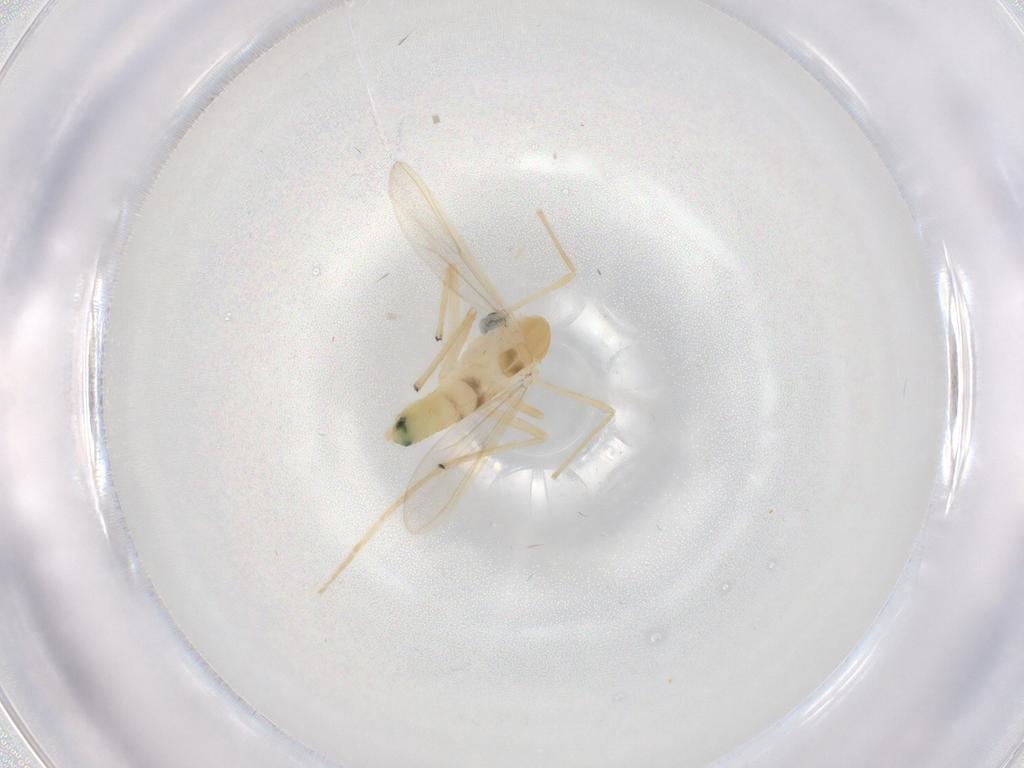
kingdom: Animalia
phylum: Arthropoda
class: Insecta
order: Diptera
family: Chironomidae
